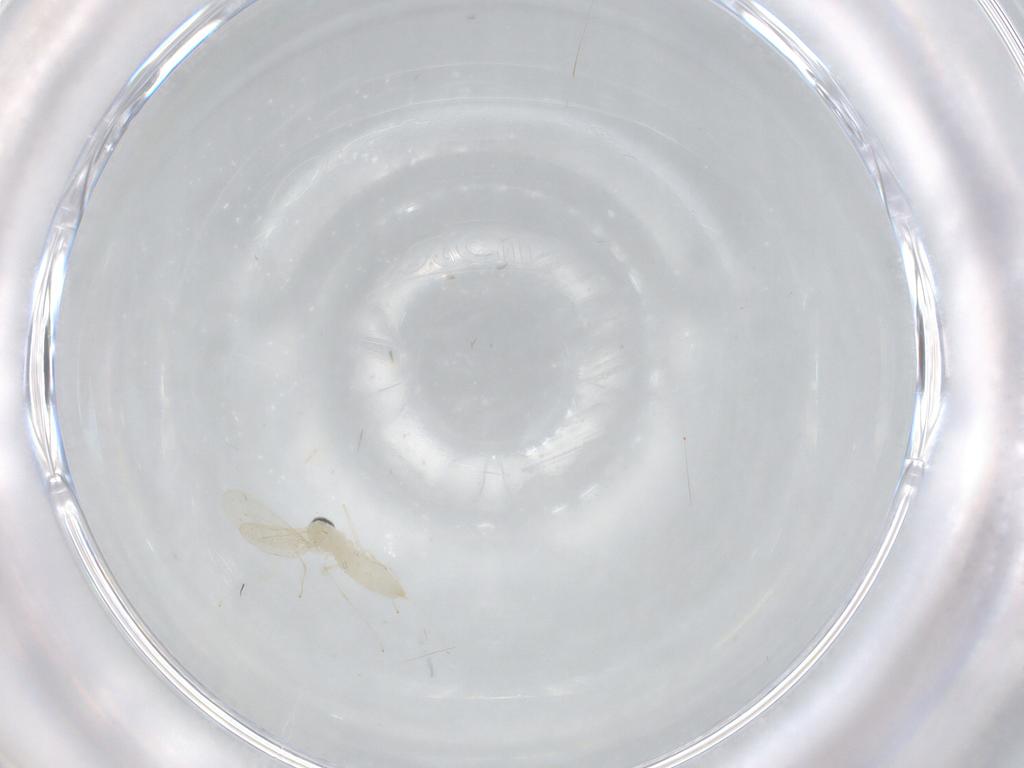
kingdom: Animalia
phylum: Arthropoda
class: Insecta
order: Diptera
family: Cecidomyiidae
